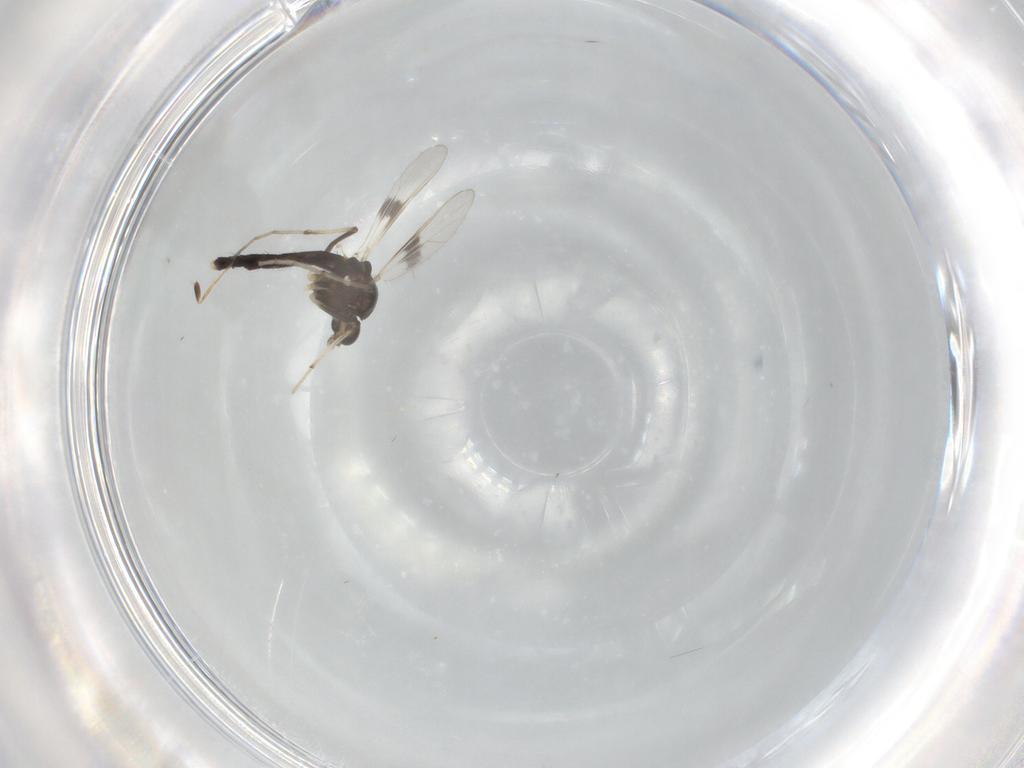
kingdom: Animalia
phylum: Arthropoda
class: Insecta
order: Diptera
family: Chironomidae
